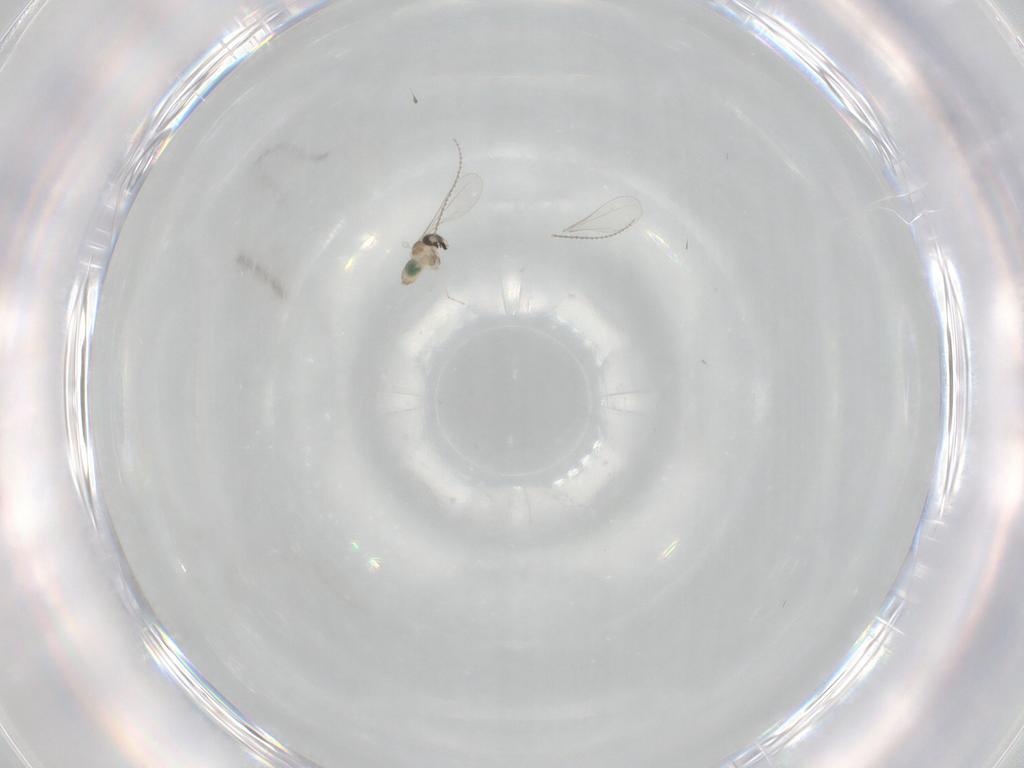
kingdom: Animalia
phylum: Arthropoda
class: Insecta
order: Diptera
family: Cecidomyiidae
